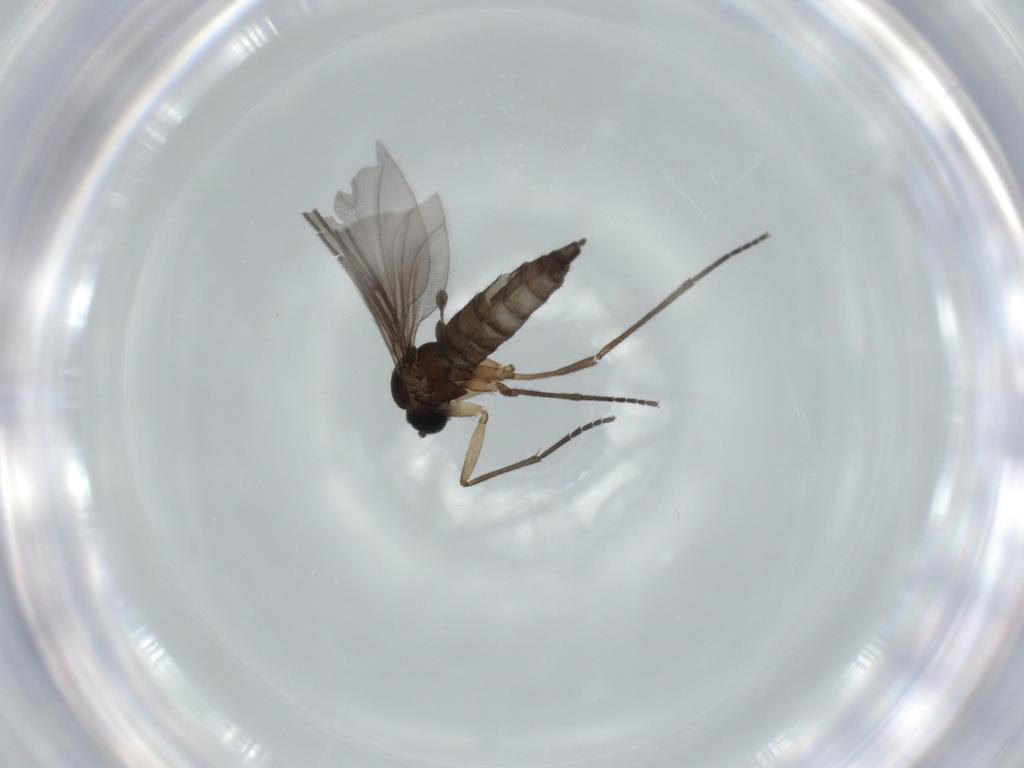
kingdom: Animalia
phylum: Arthropoda
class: Insecta
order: Diptera
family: Sciaridae
